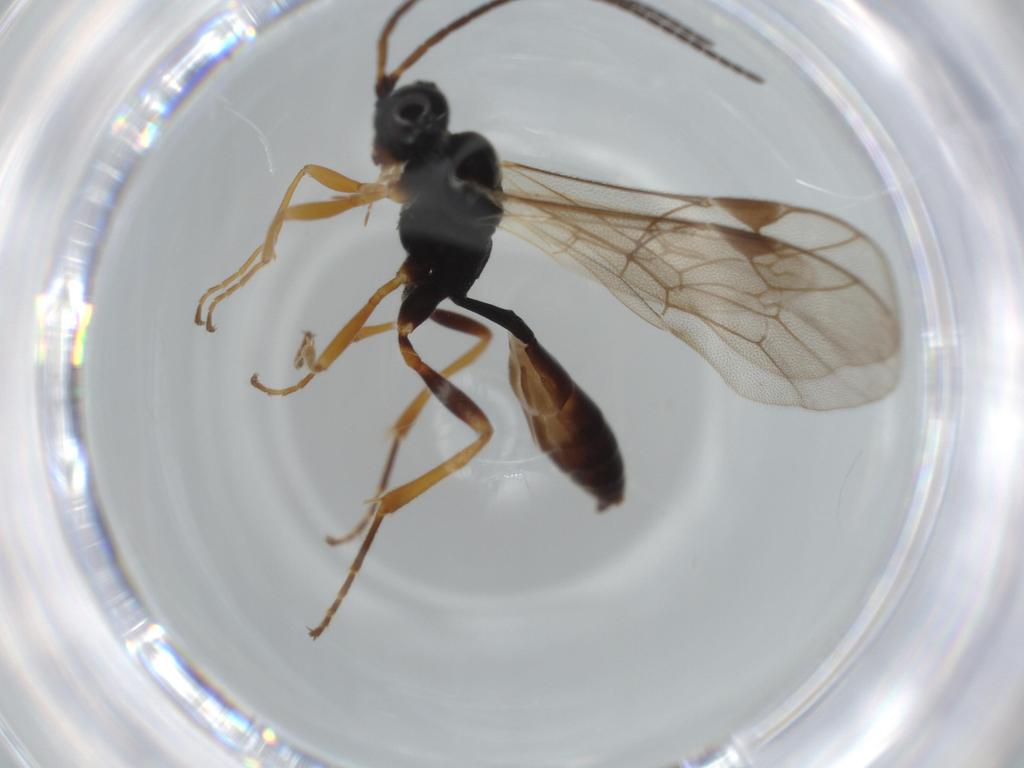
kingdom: Animalia
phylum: Arthropoda
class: Insecta
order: Hymenoptera
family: Ichneumonidae
